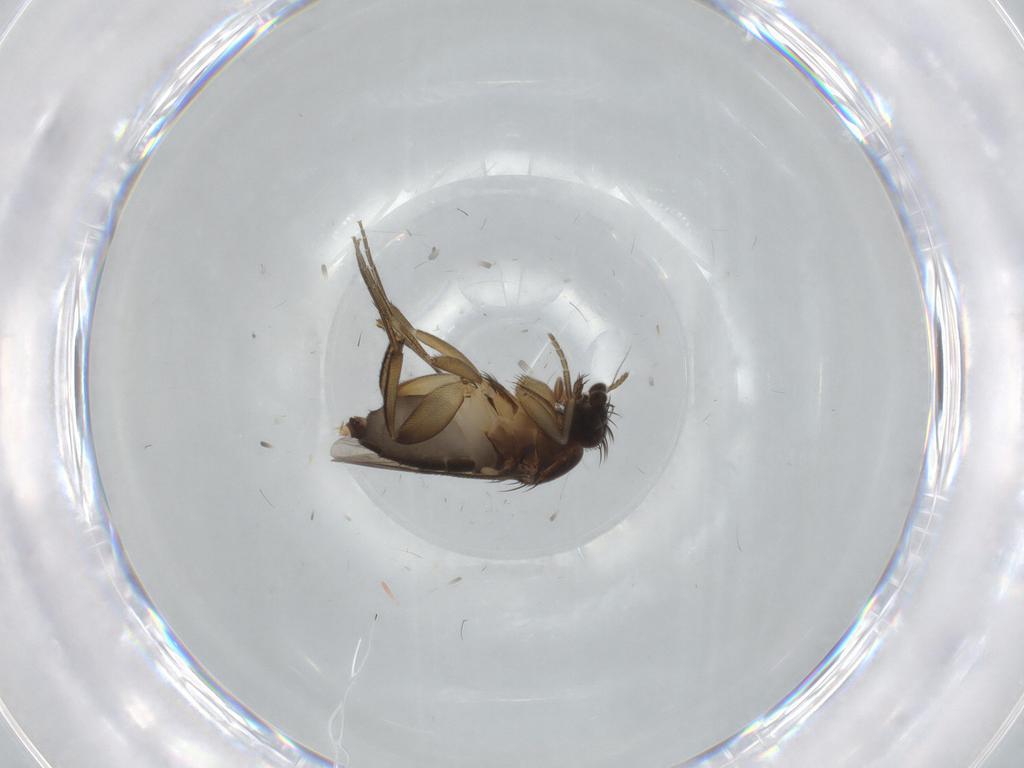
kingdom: Animalia
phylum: Arthropoda
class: Insecta
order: Diptera
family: Phoridae
